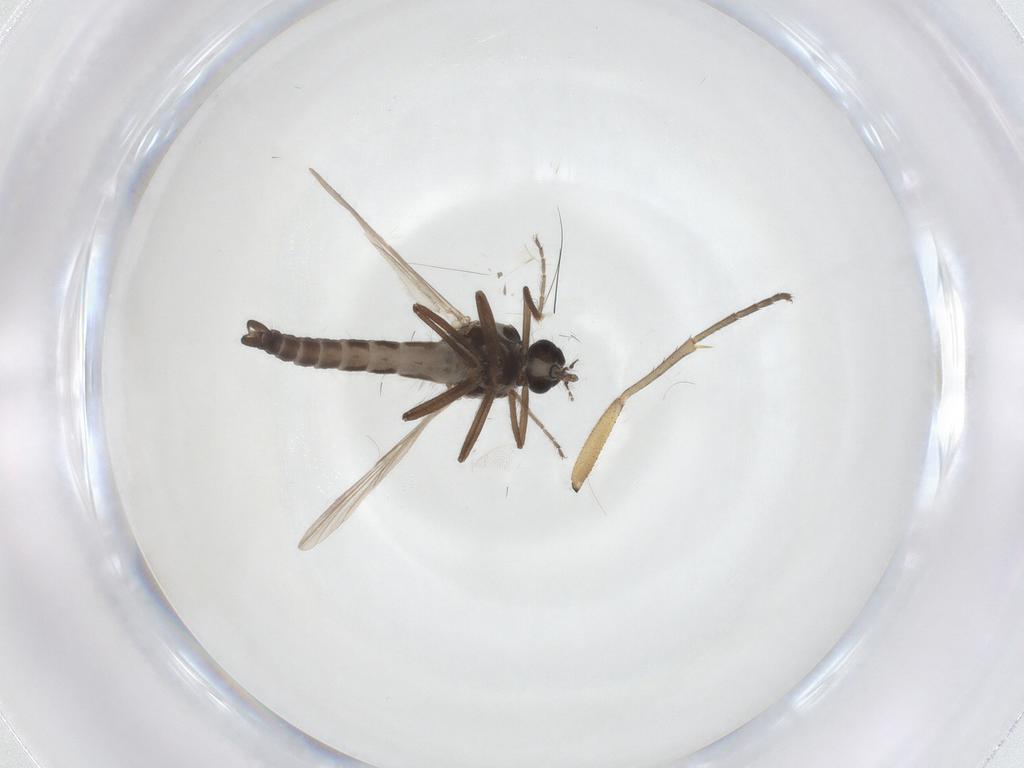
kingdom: Animalia
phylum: Arthropoda
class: Insecta
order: Diptera
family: Ceratopogonidae
